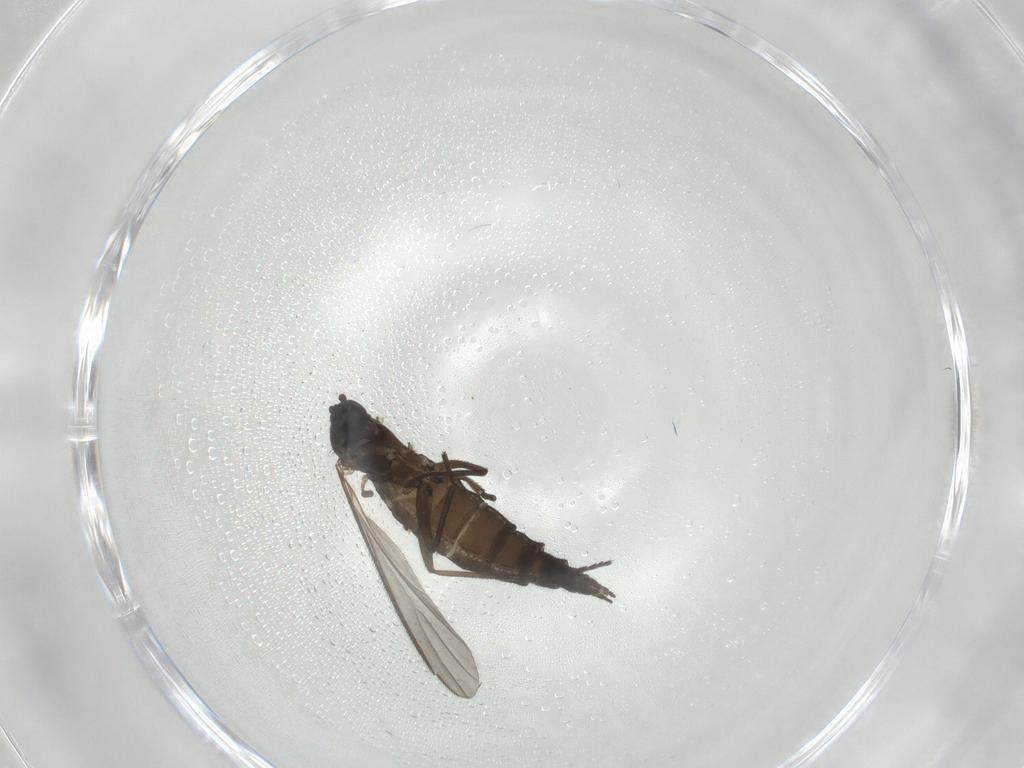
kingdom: Animalia
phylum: Arthropoda
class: Insecta
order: Diptera
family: Sciaridae
